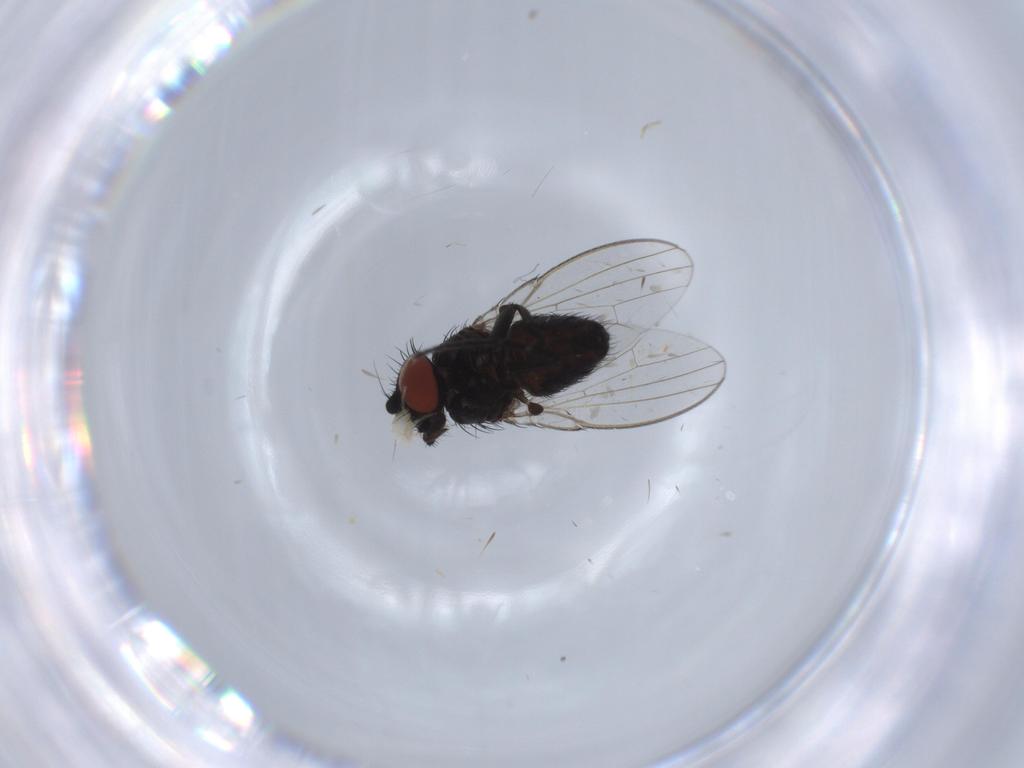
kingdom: Animalia
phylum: Arthropoda
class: Insecta
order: Diptera
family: Milichiidae
